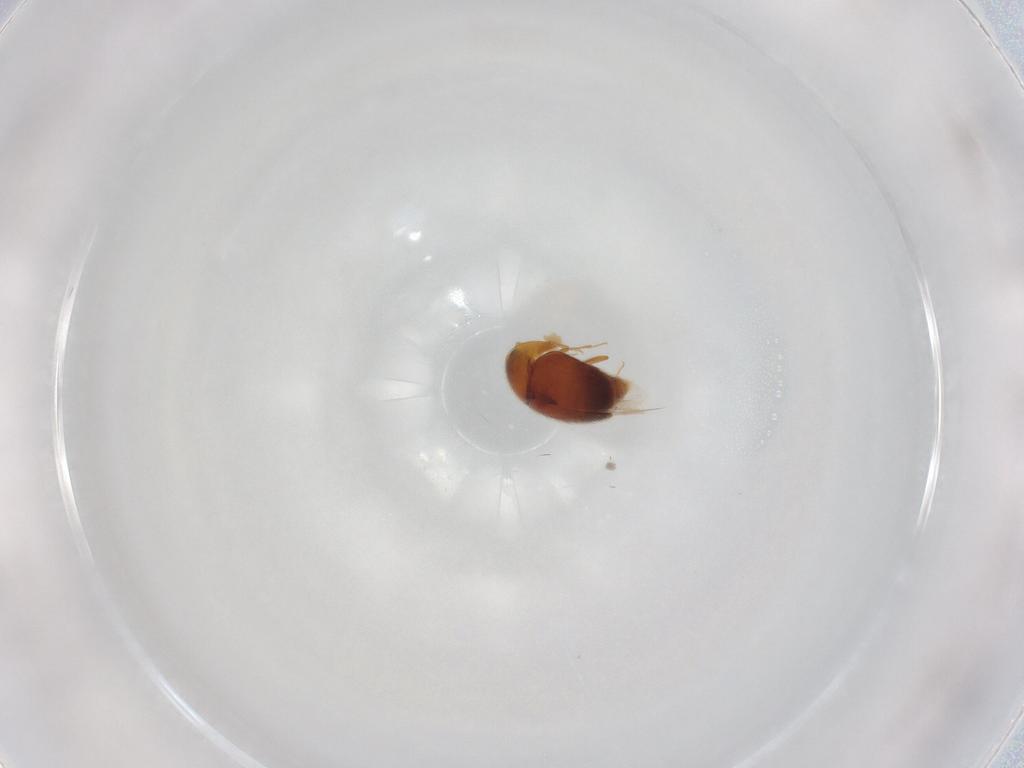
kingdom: Animalia
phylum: Arthropoda
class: Insecta
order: Coleoptera
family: Corylophidae
